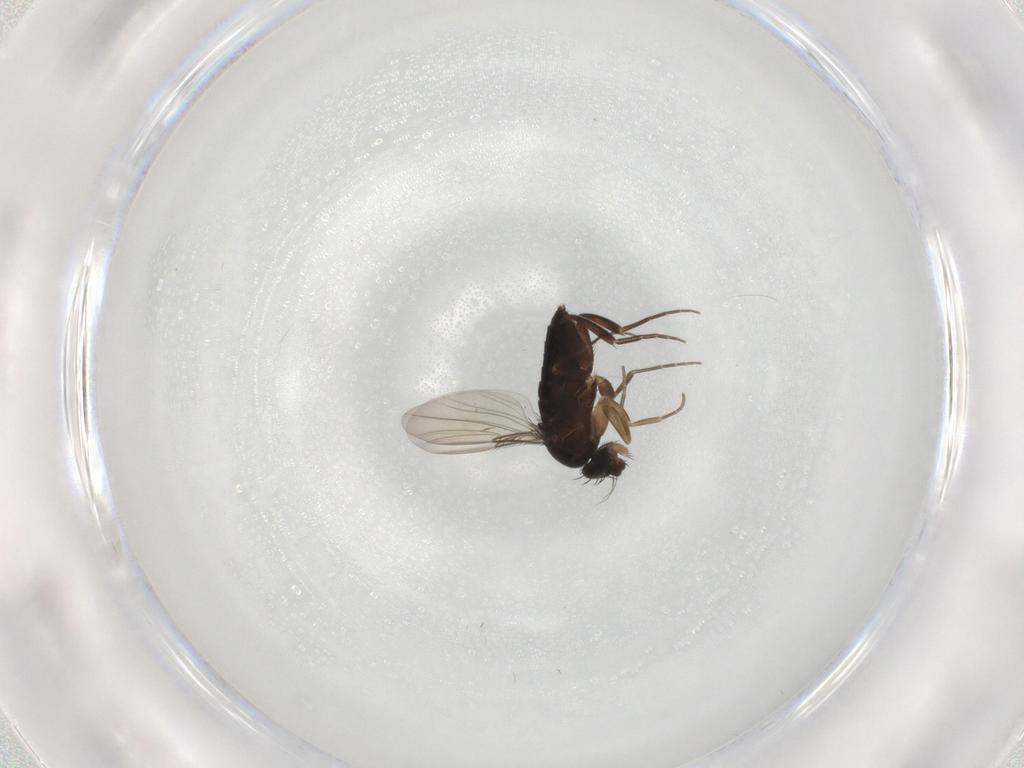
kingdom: Animalia
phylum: Arthropoda
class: Insecta
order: Diptera
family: Phoridae
